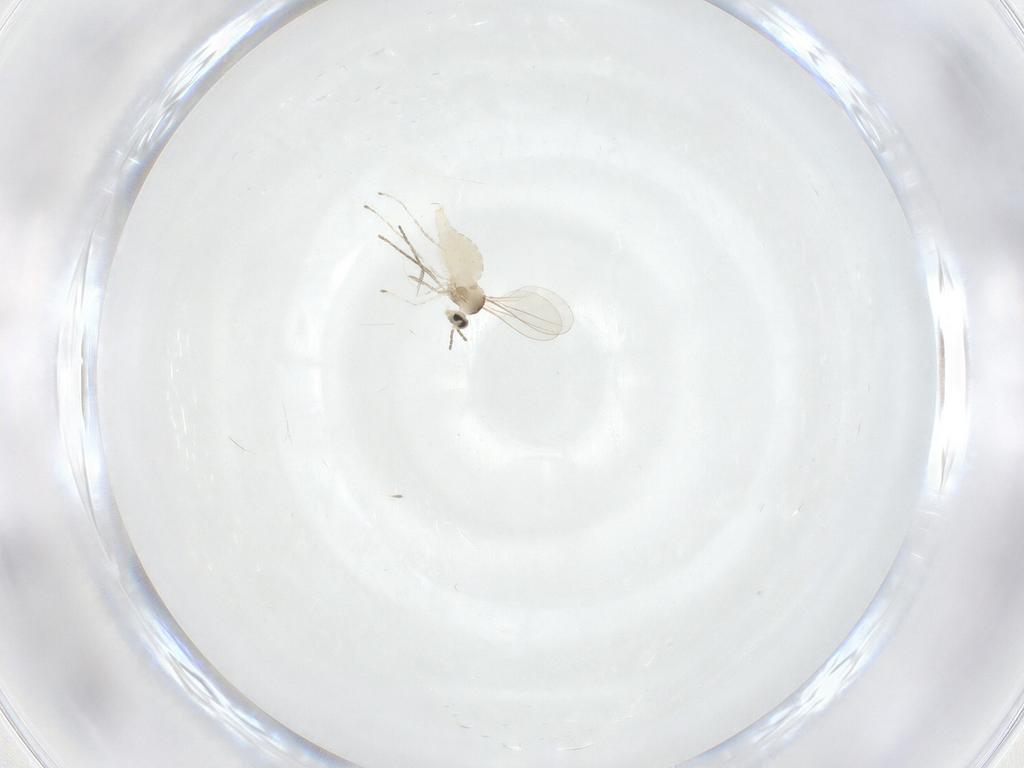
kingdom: Animalia
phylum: Arthropoda
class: Insecta
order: Diptera
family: Cecidomyiidae
